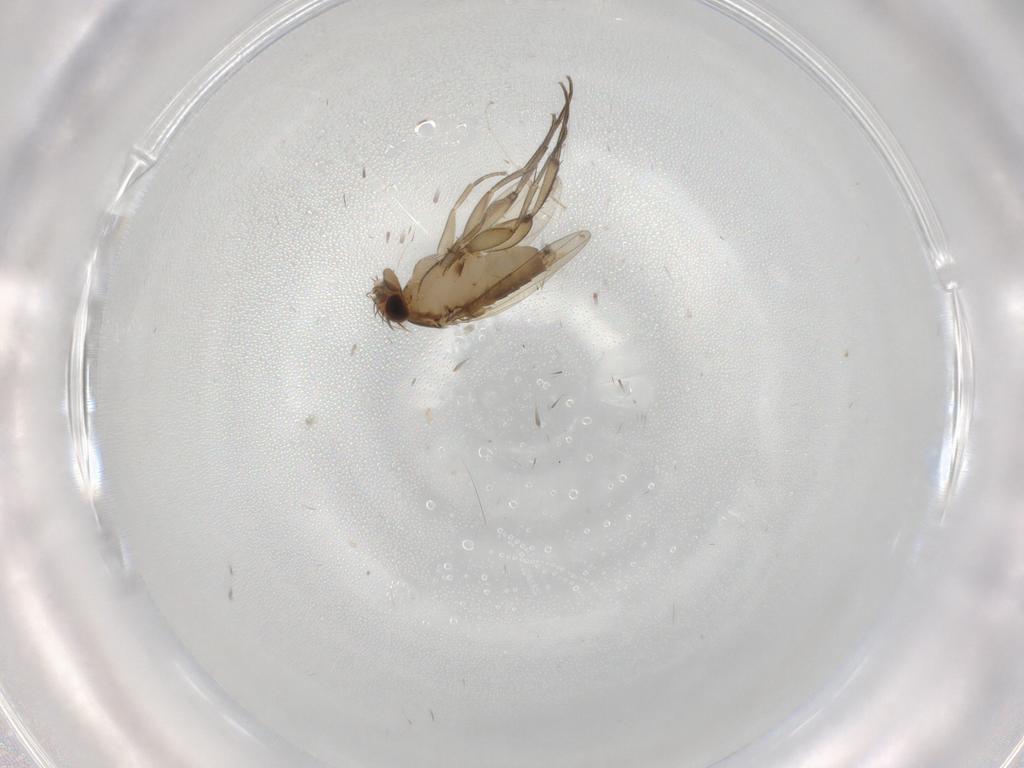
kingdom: Animalia
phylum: Arthropoda
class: Insecta
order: Diptera
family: Phoridae
